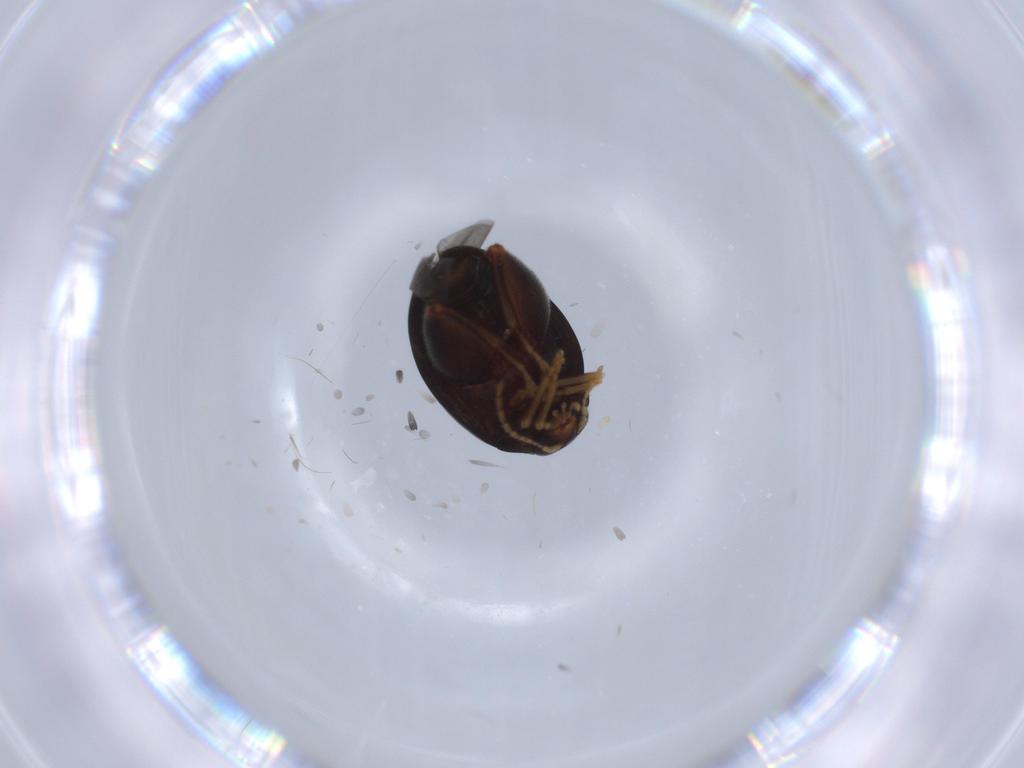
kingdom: Animalia
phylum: Arthropoda
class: Insecta
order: Coleoptera
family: Chrysomelidae
